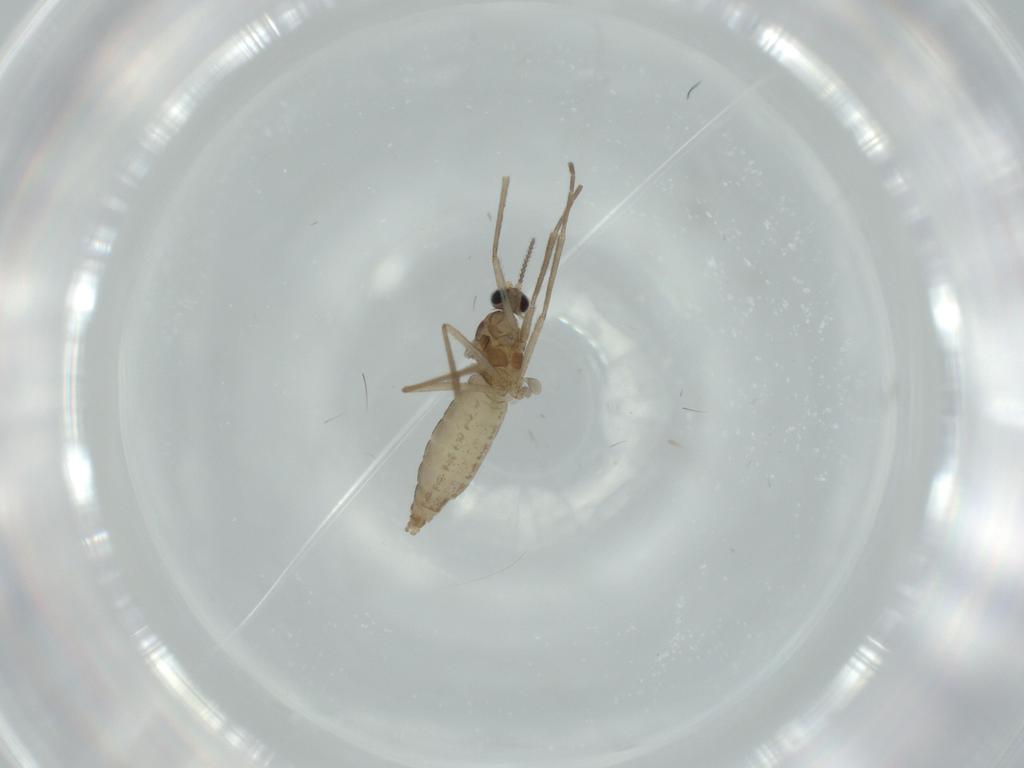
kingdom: Animalia
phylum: Arthropoda
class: Insecta
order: Diptera
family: Cecidomyiidae
